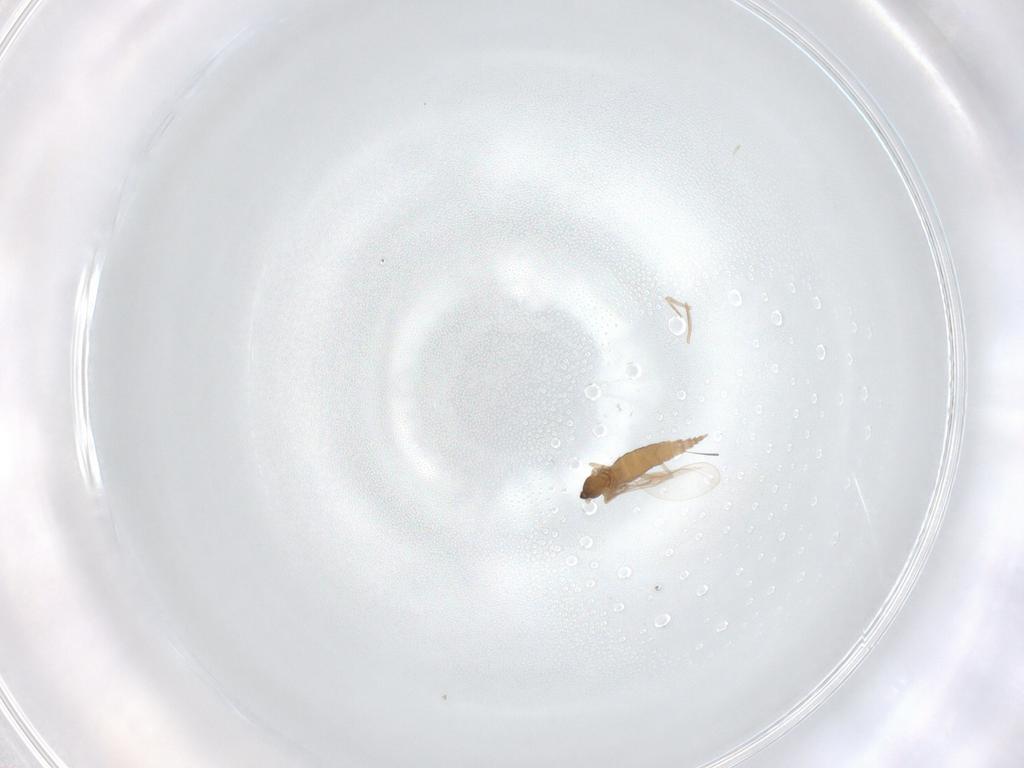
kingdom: Animalia
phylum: Arthropoda
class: Insecta
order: Diptera
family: Cecidomyiidae
